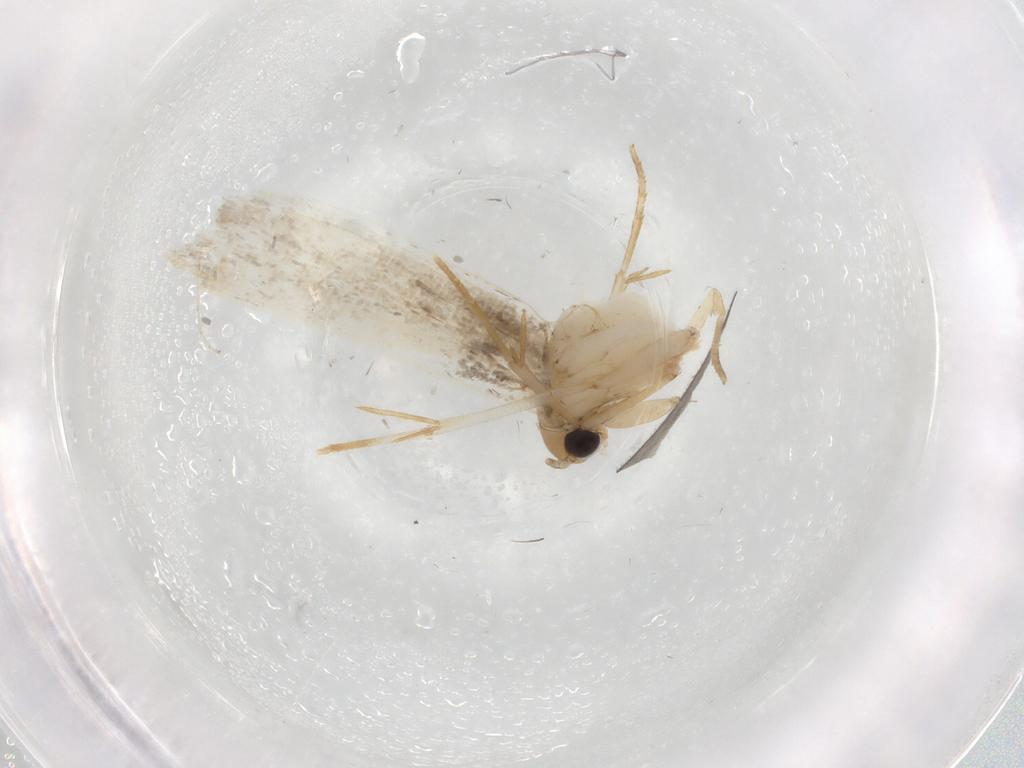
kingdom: Animalia
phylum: Arthropoda
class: Insecta
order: Lepidoptera
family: Tineidae
